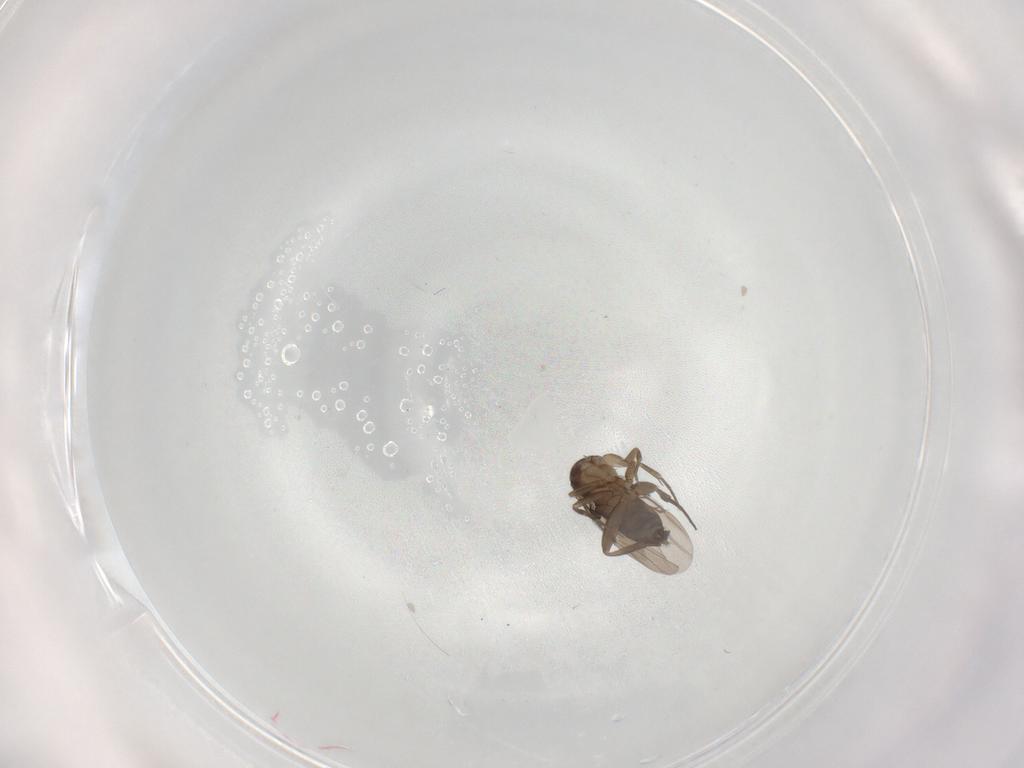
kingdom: Animalia
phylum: Arthropoda
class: Insecta
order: Diptera
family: Phoridae
